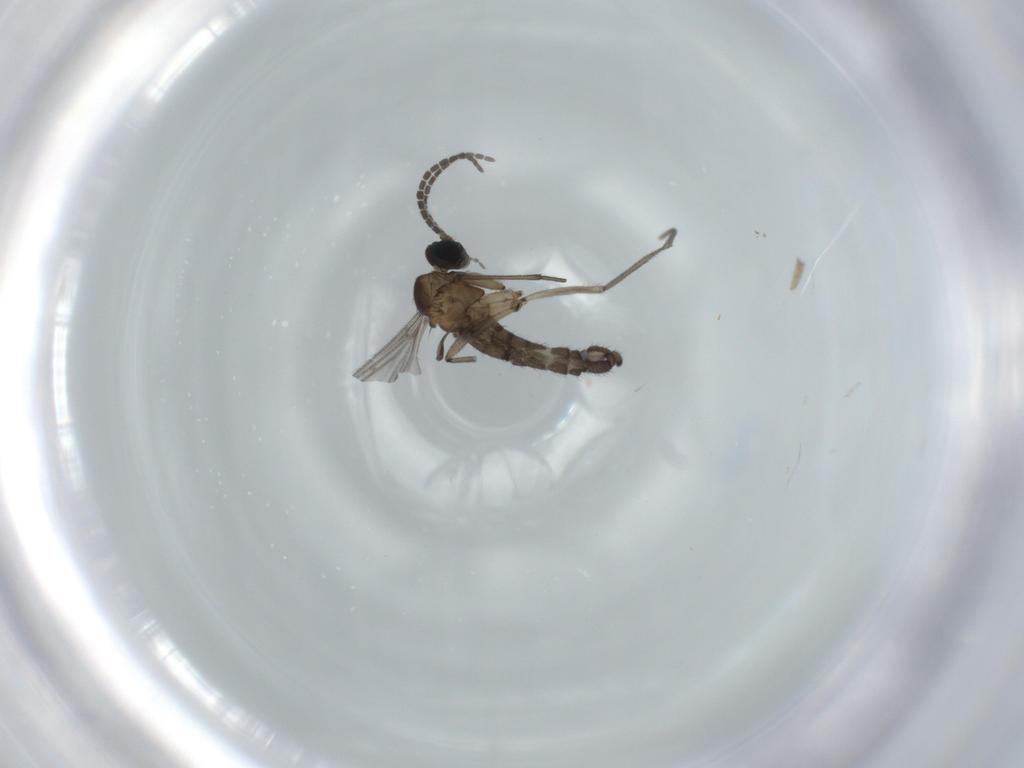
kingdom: Animalia
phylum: Arthropoda
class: Insecta
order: Diptera
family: Sciaridae
